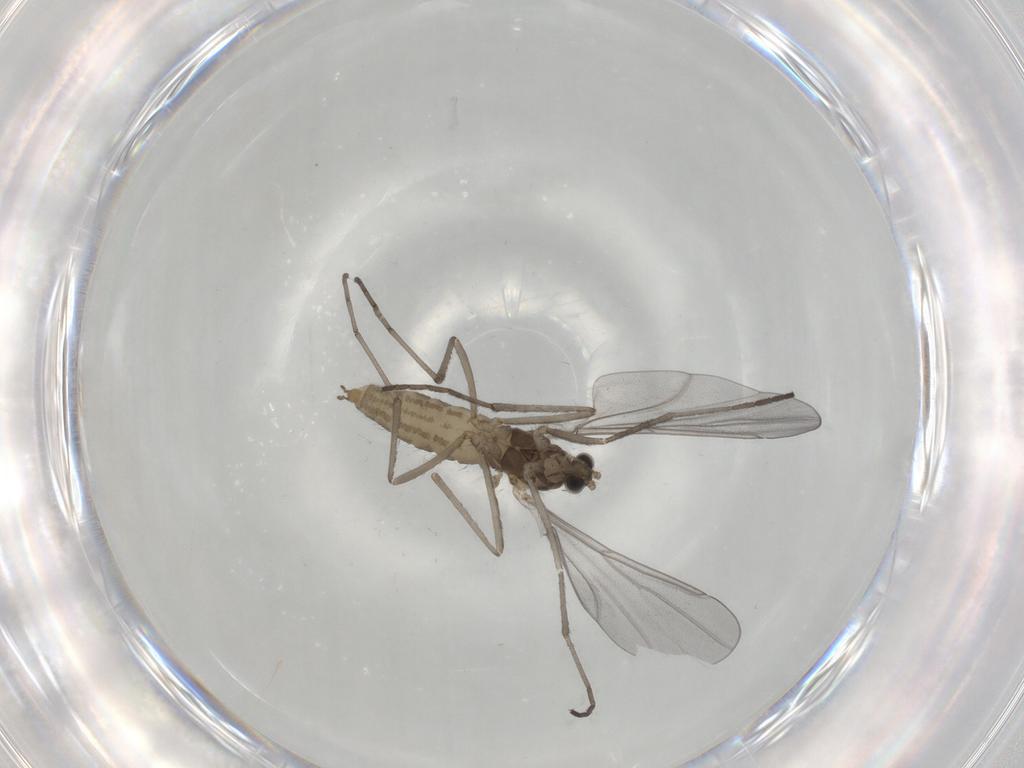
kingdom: Animalia
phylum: Arthropoda
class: Insecta
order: Diptera
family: Cecidomyiidae
